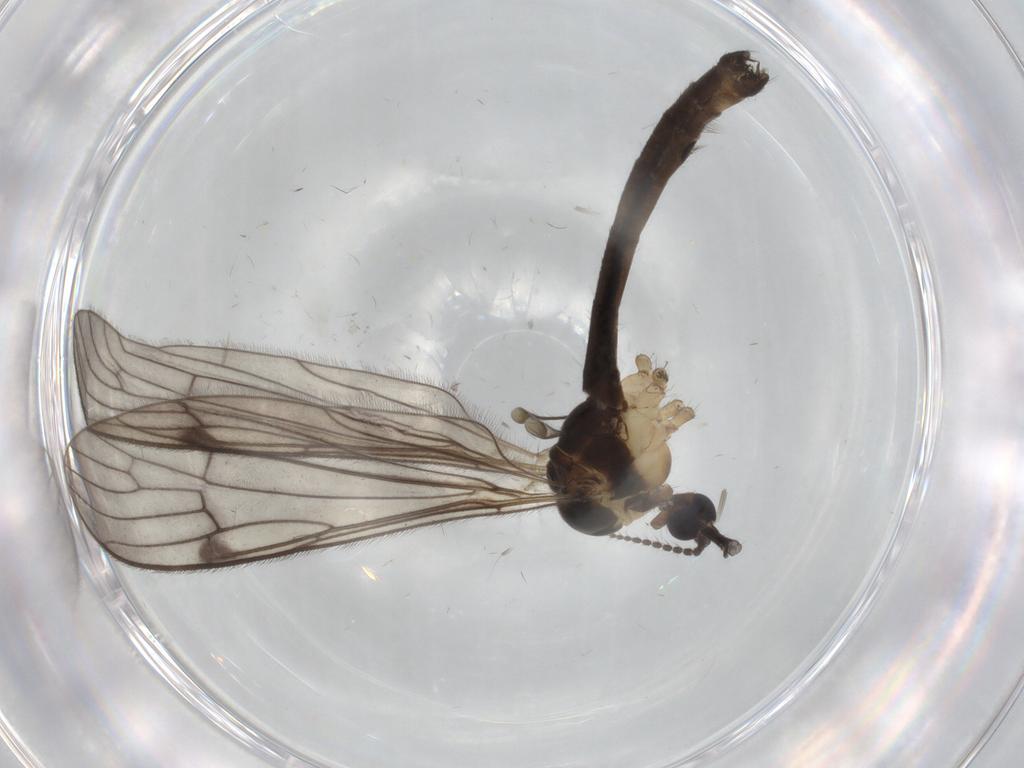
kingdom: Animalia
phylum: Arthropoda
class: Insecta
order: Diptera
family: Limoniidae
